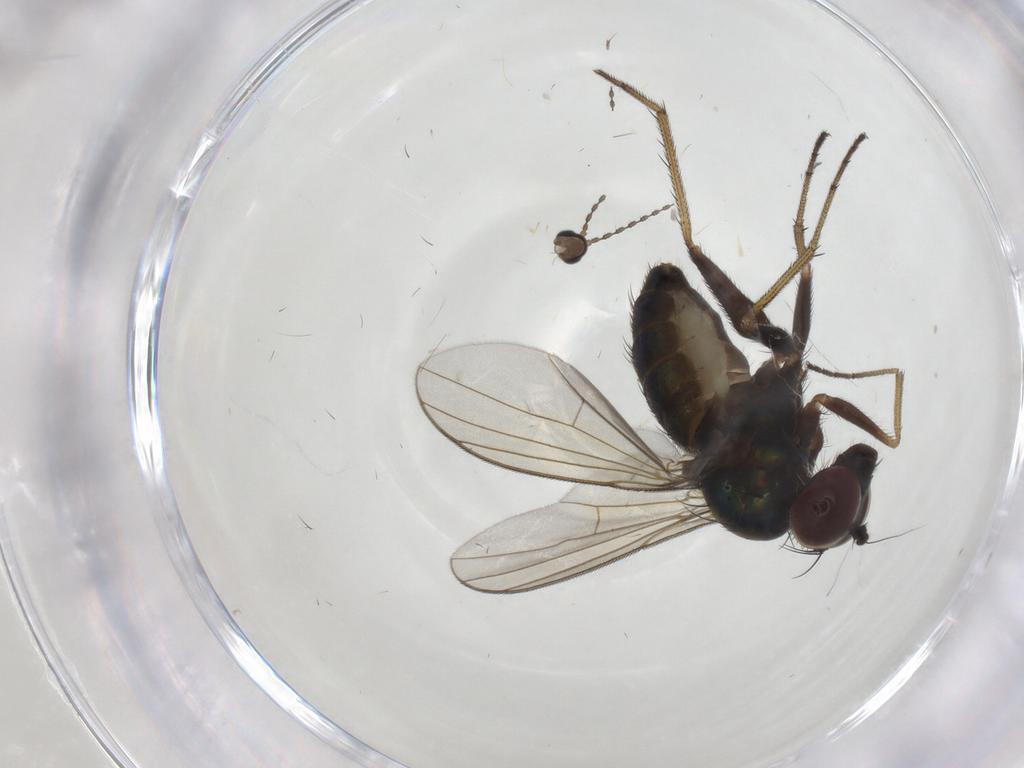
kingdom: Animalia
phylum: Arthropoda
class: Insecta
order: Diptera
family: Dolichopodidae
